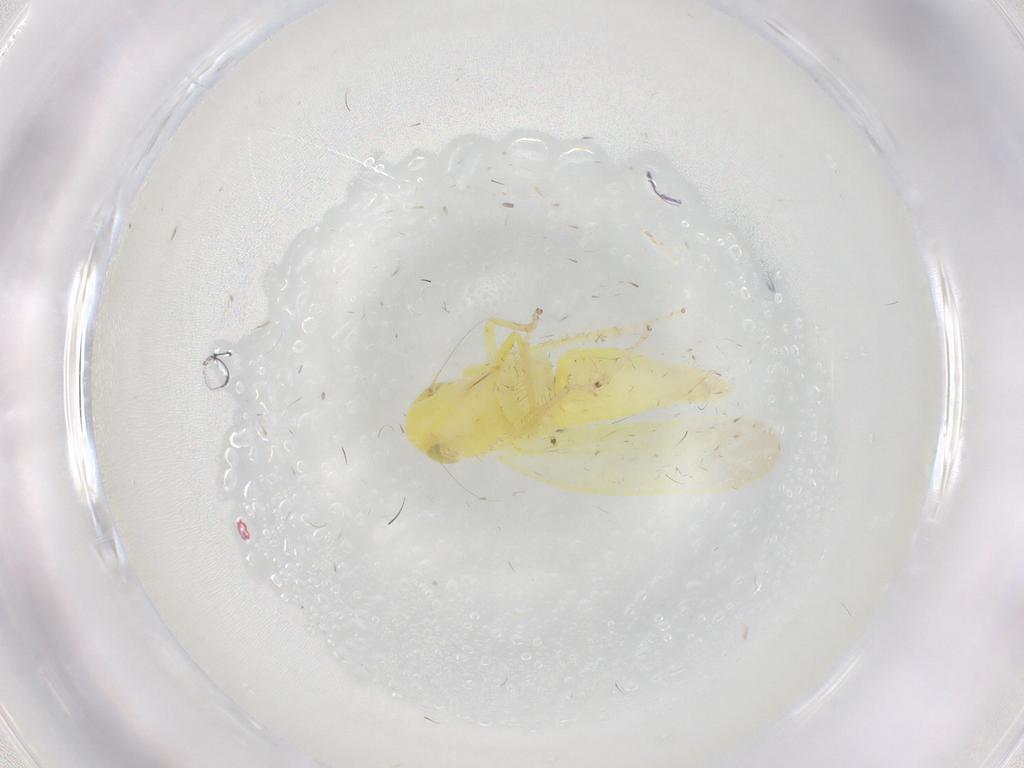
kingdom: Animalia
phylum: Arthropoda
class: Insecta
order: Hemiptera
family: Cicadellidae
